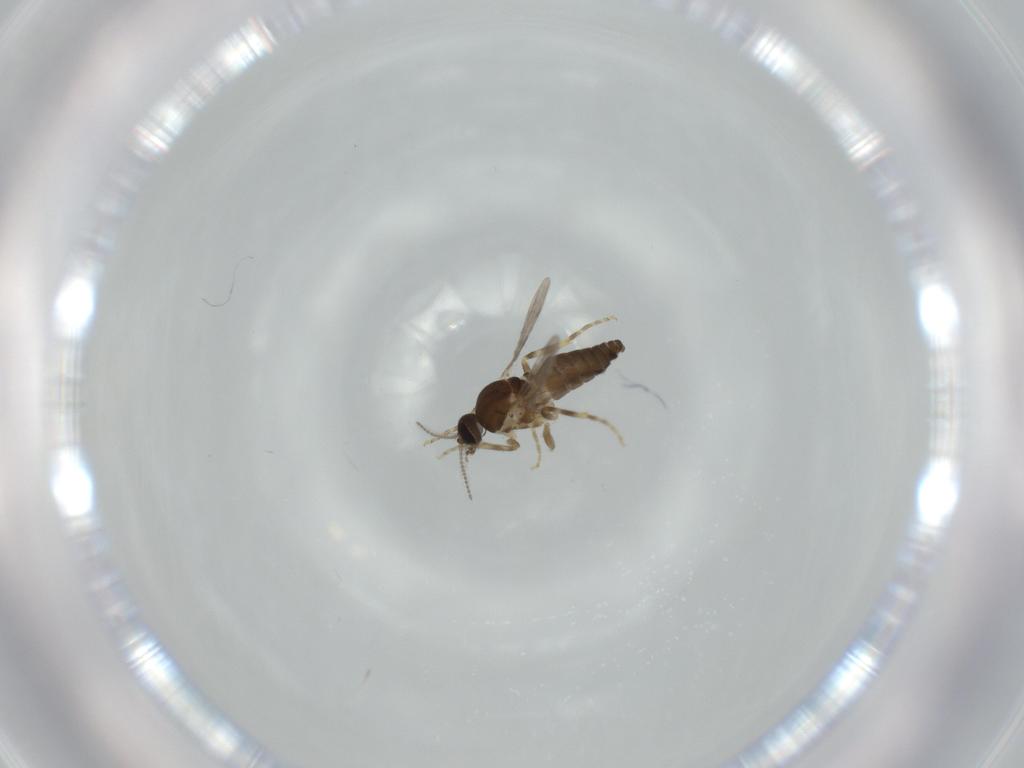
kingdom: Animalia
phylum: Arthropoda
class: Insecta
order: Diptera
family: Ceratopogonidae
